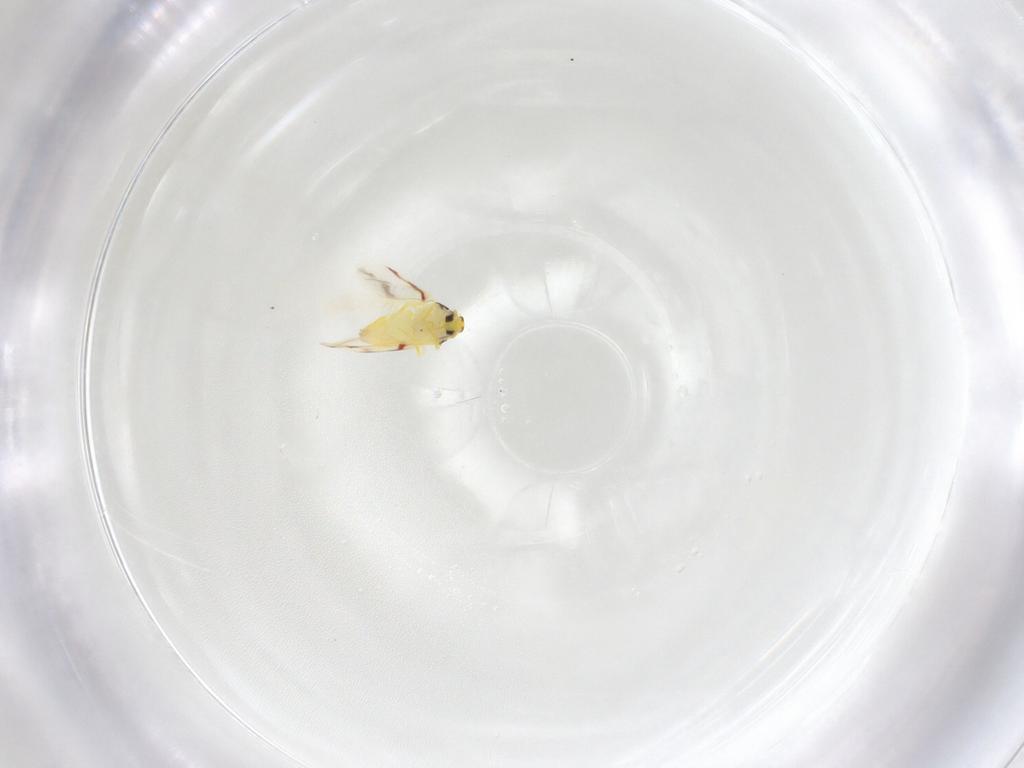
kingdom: Animalia
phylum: Arthropoda
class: Insecta
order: Hemiptera
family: Aleyrodidae
